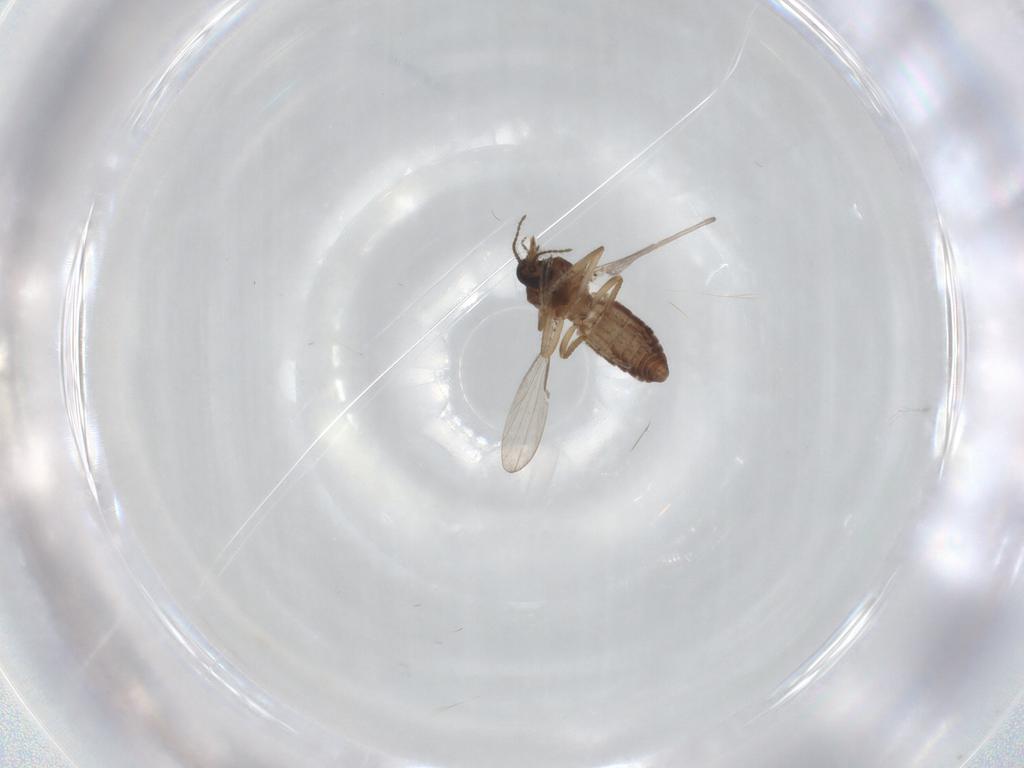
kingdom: Animalia
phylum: Arthropoda
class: Insecta
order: Diptera
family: Ceratopogonidae
